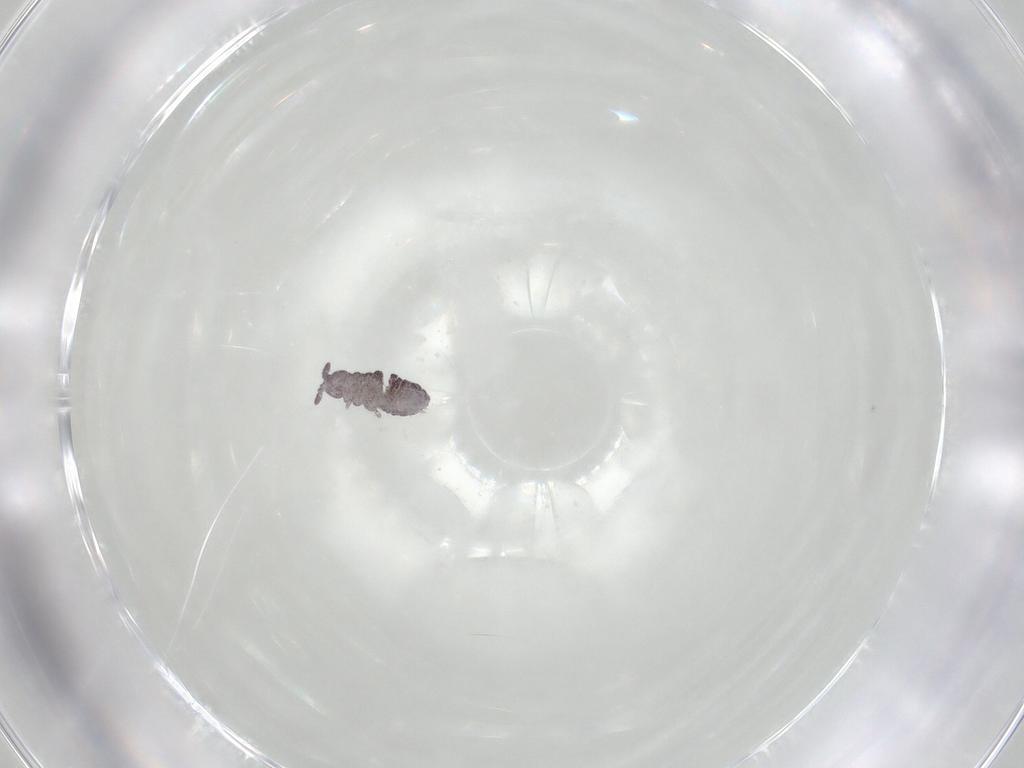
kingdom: Animalia
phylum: Arthropoda
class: Collembola
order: Poduromorpha
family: Hypogastruridae
